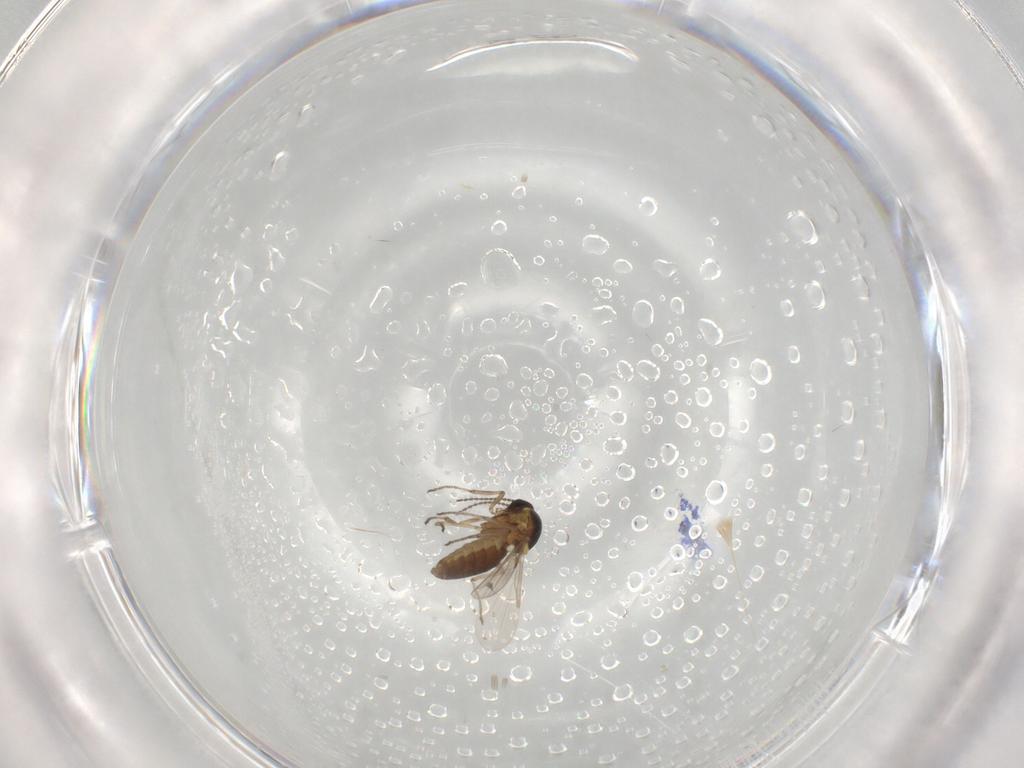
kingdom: Animalia
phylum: Arthropoda
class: Insecta
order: Diptera
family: Ceratopogonidae
